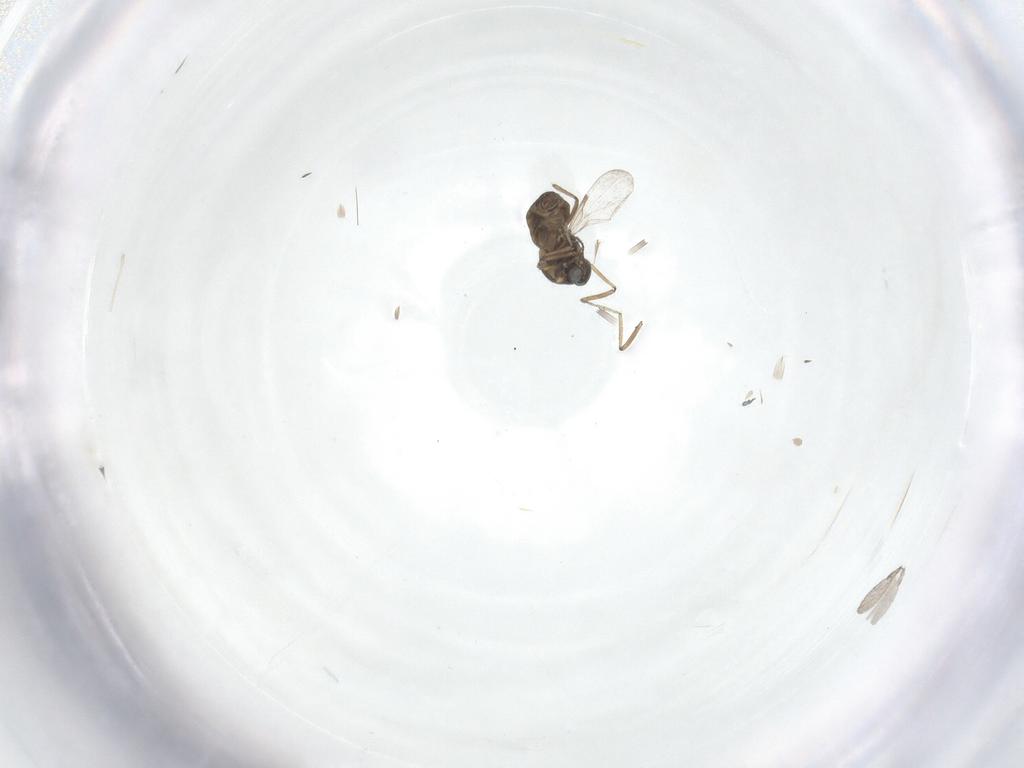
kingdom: Animalia
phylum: Arthropoda
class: Insecta
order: Diptera
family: Ceratopogonidae
